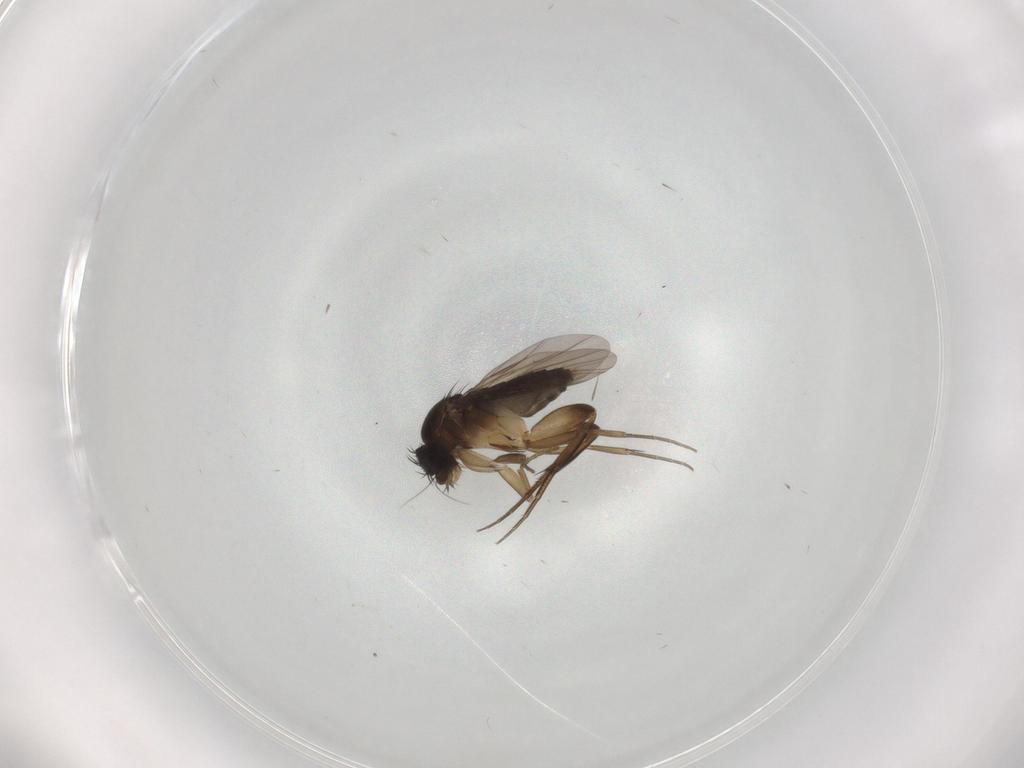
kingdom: Animalia
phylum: Arthropoda
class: Insecta
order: Diptera
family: Phoridae
